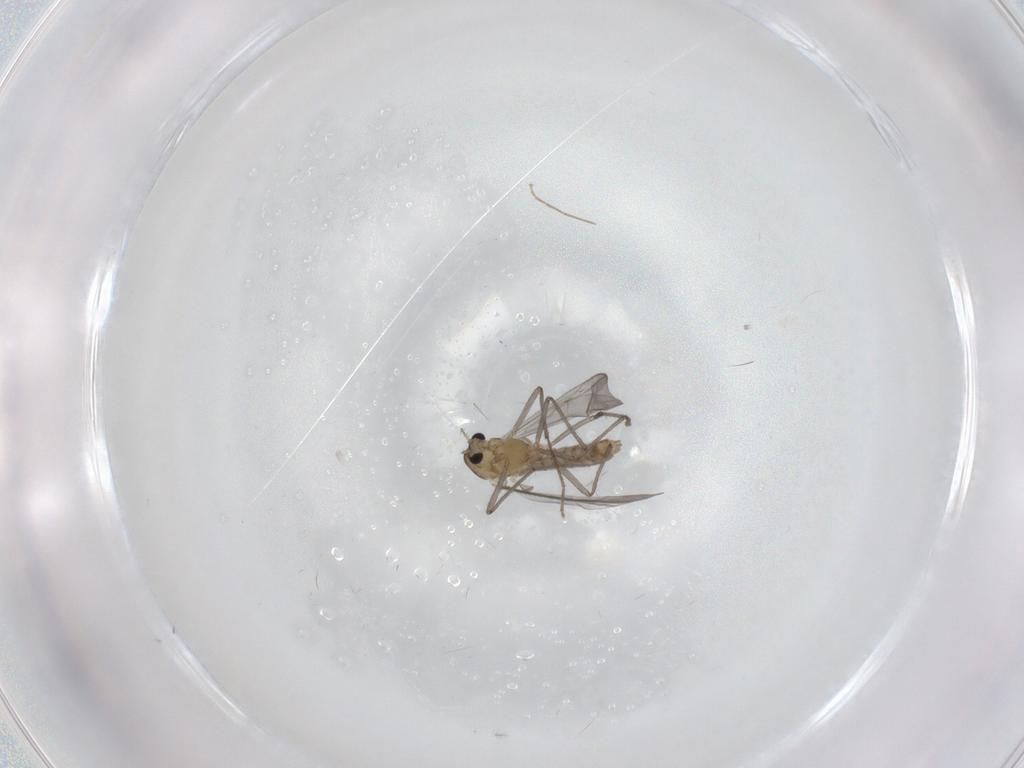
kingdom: Animalia
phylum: Arthropoda
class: Insecta
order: Diptera
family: Chironomidae
